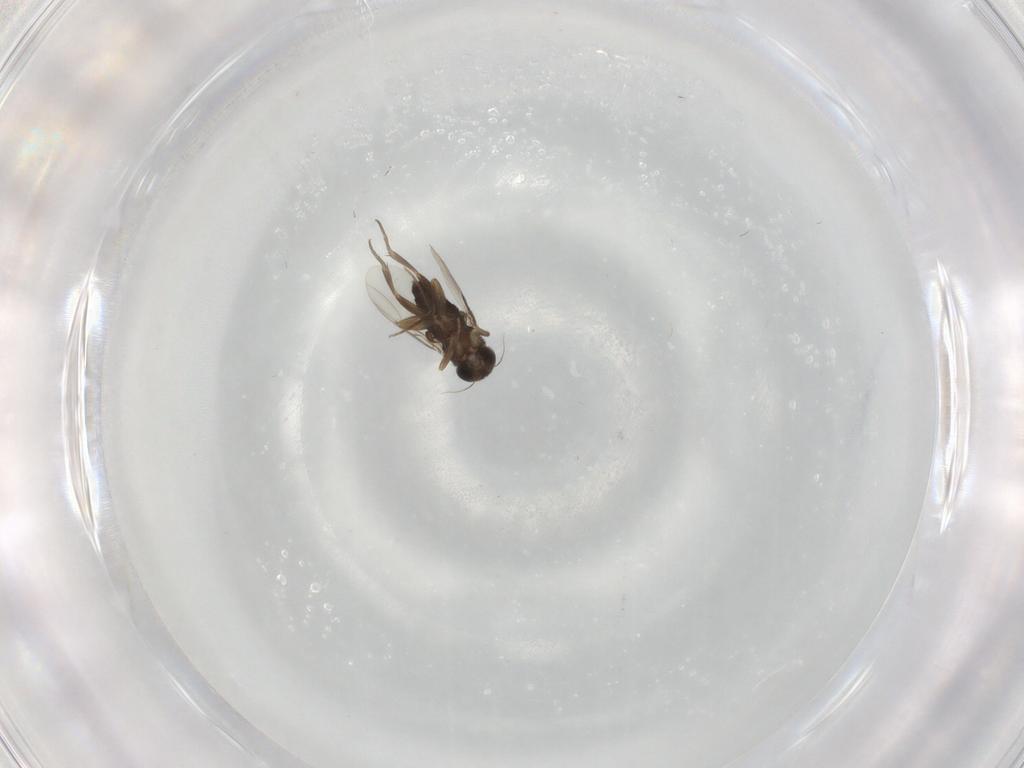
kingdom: Animalia
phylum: Arthropoda
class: Insecta
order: Diptera
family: Phoridae
